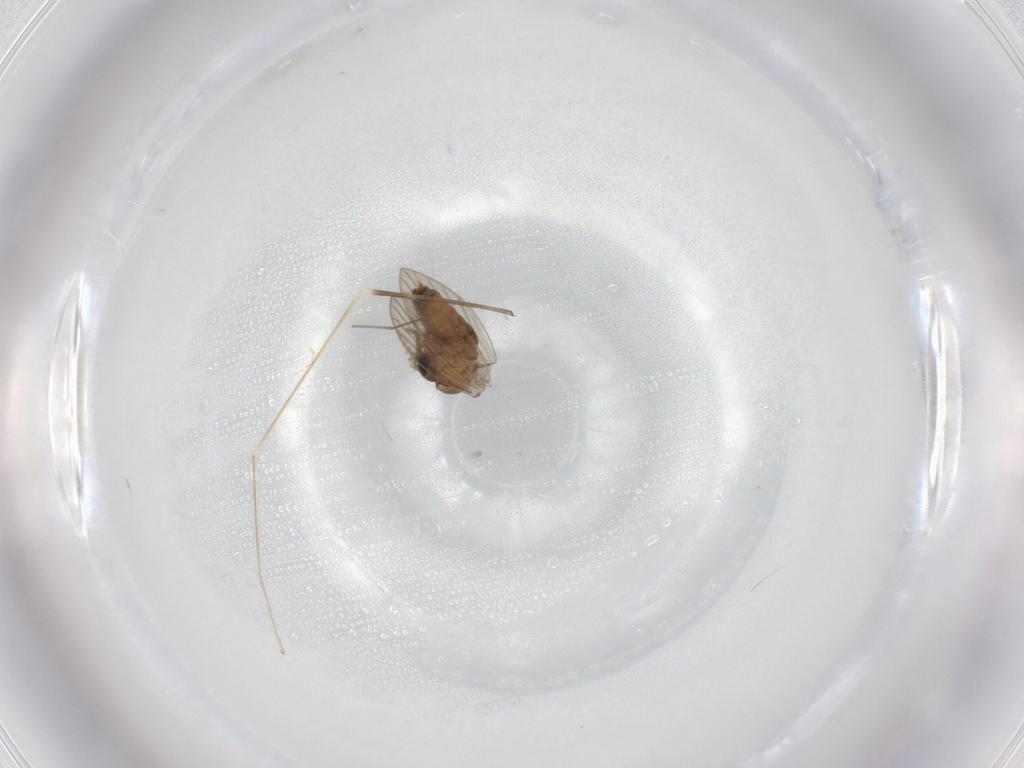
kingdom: Animalia
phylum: Arthropoda
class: Insecta
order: Diptera
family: Psychodidae
